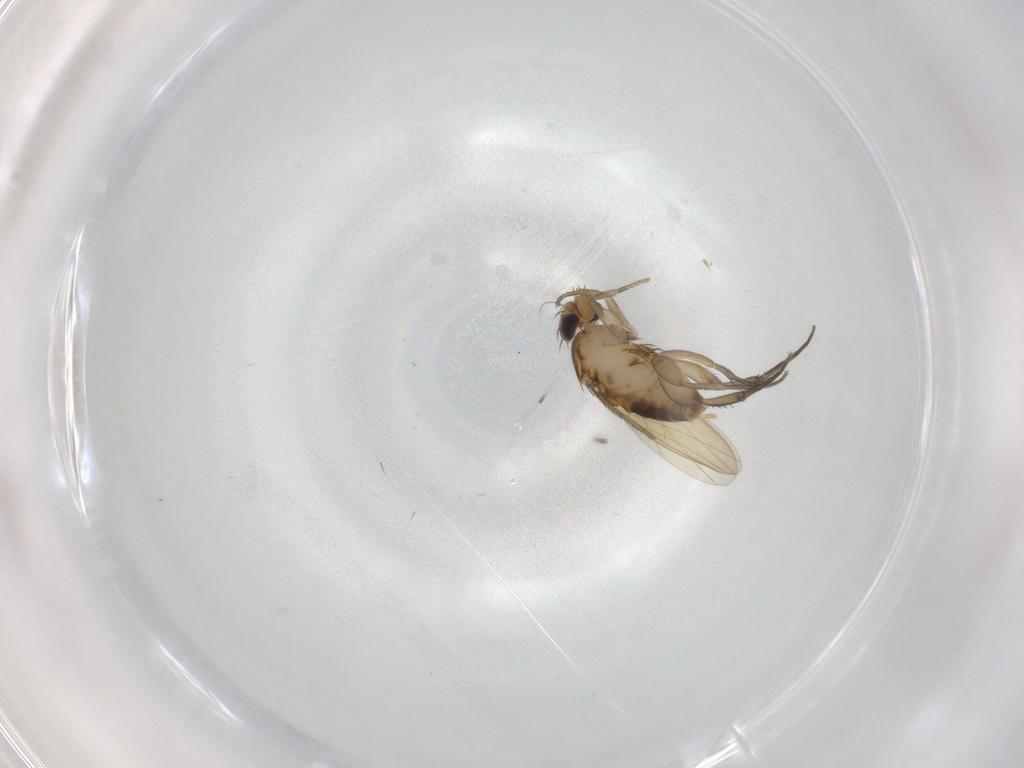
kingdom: Animalia
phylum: Arthropoda
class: Insecta
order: Diptera
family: Phoridae
